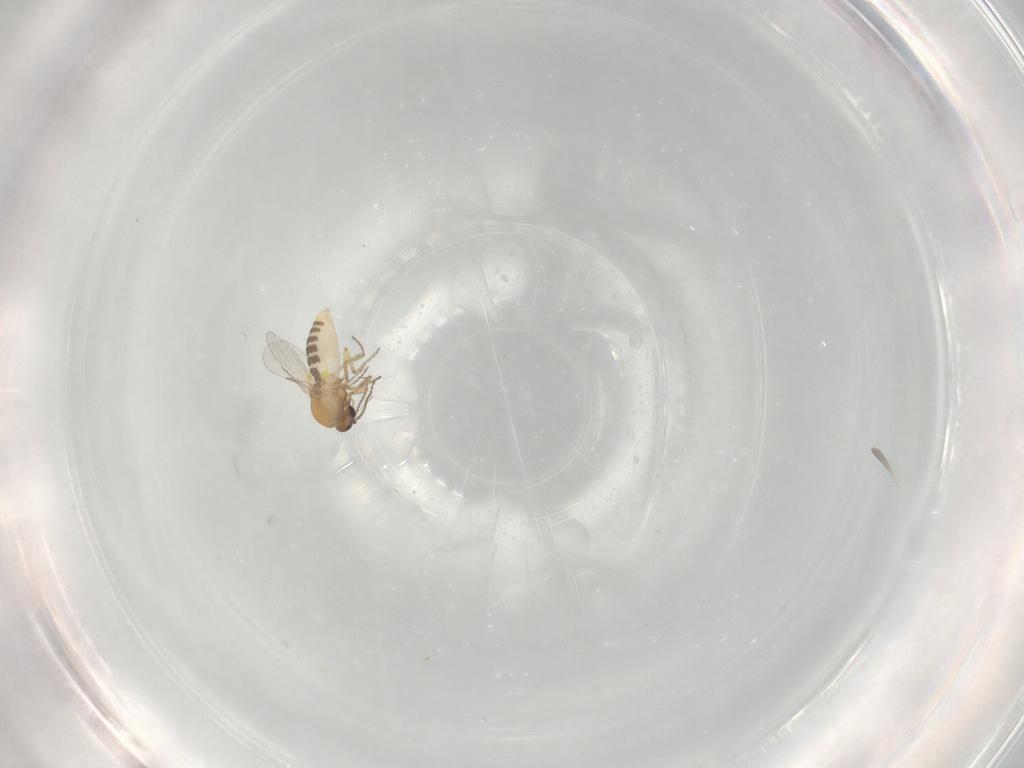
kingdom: Animalia
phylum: Arthropoda
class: Insecta
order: Diptera
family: Ceratopogonidae
